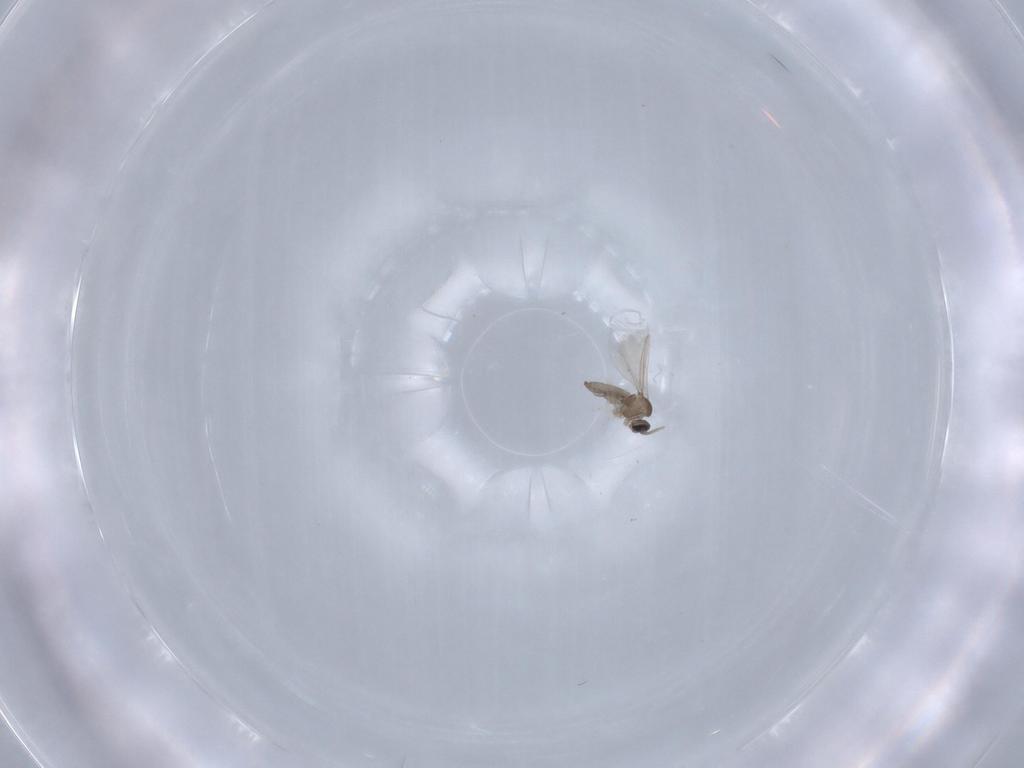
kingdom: Animalia
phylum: Arthropoda
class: Insecta
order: Diptera
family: Cecidomyiidae
